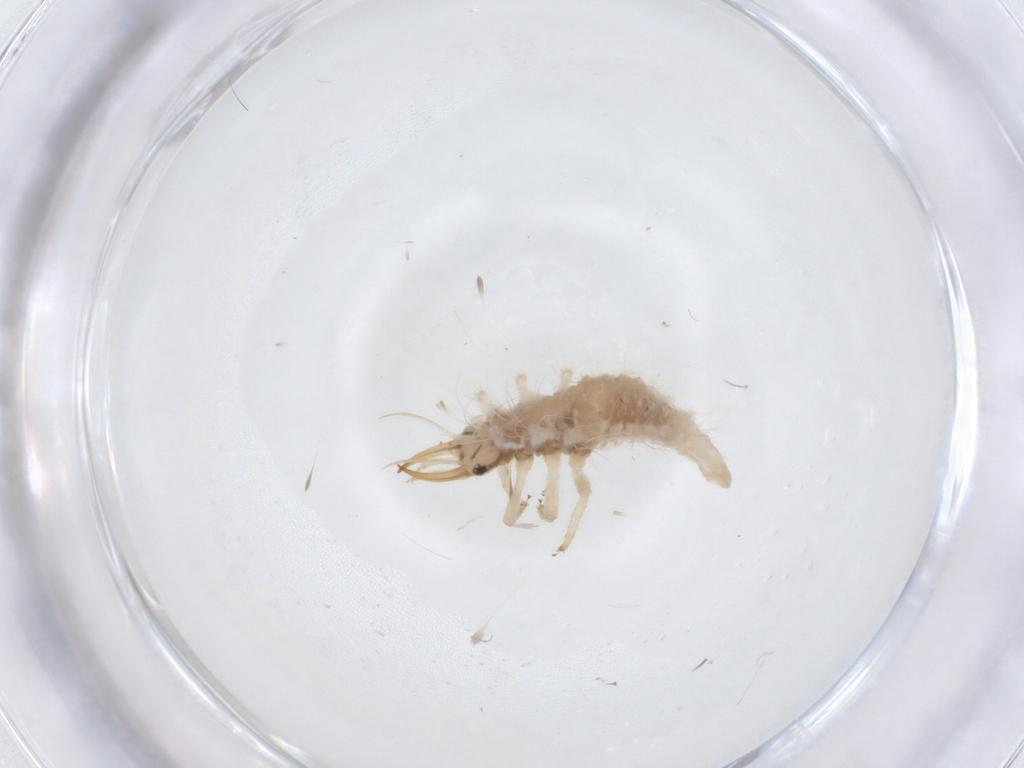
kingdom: Animalia
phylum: Arthropoda
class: Insecta
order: Neuroptera
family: Chrysopidae
